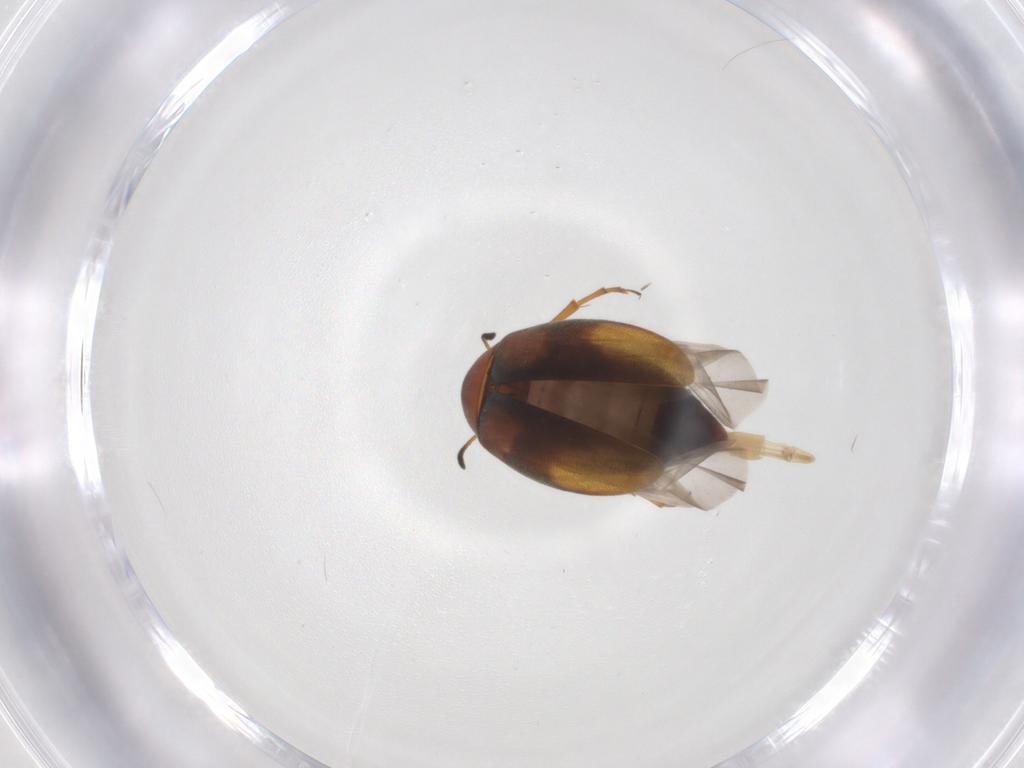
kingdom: Animalia
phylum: Arthropoda
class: Insecta
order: Coleoptera
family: Scraptiidae
